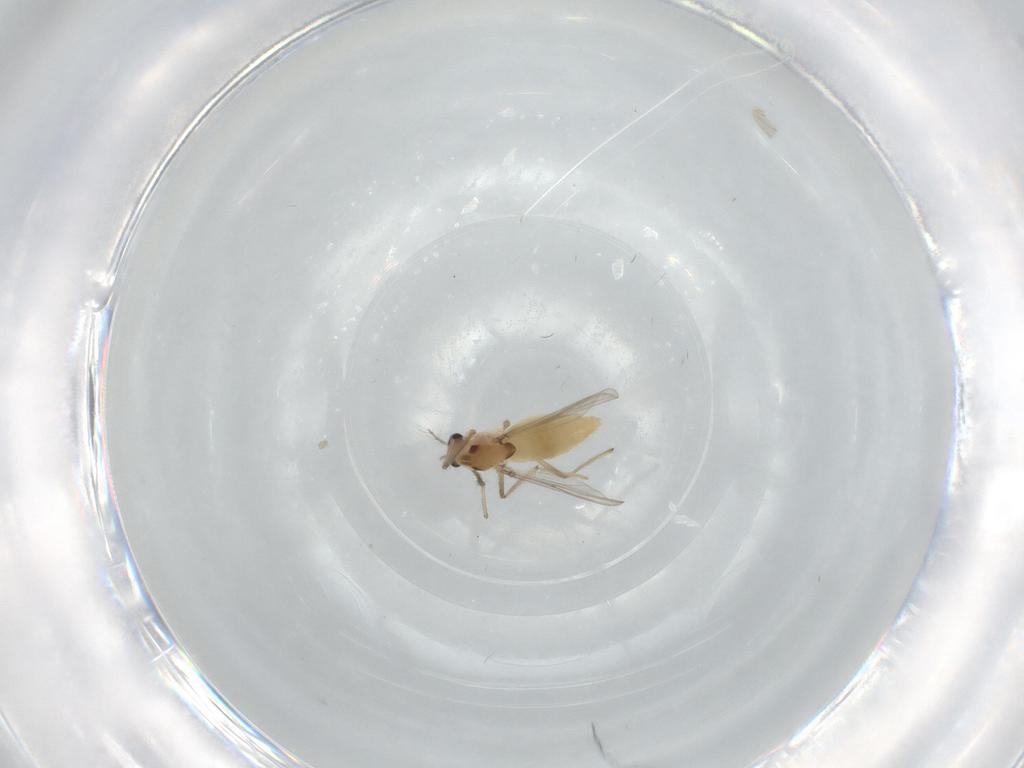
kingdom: Animalia
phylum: Arthropoda
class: Insecta
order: Diptera
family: Chironomidae
